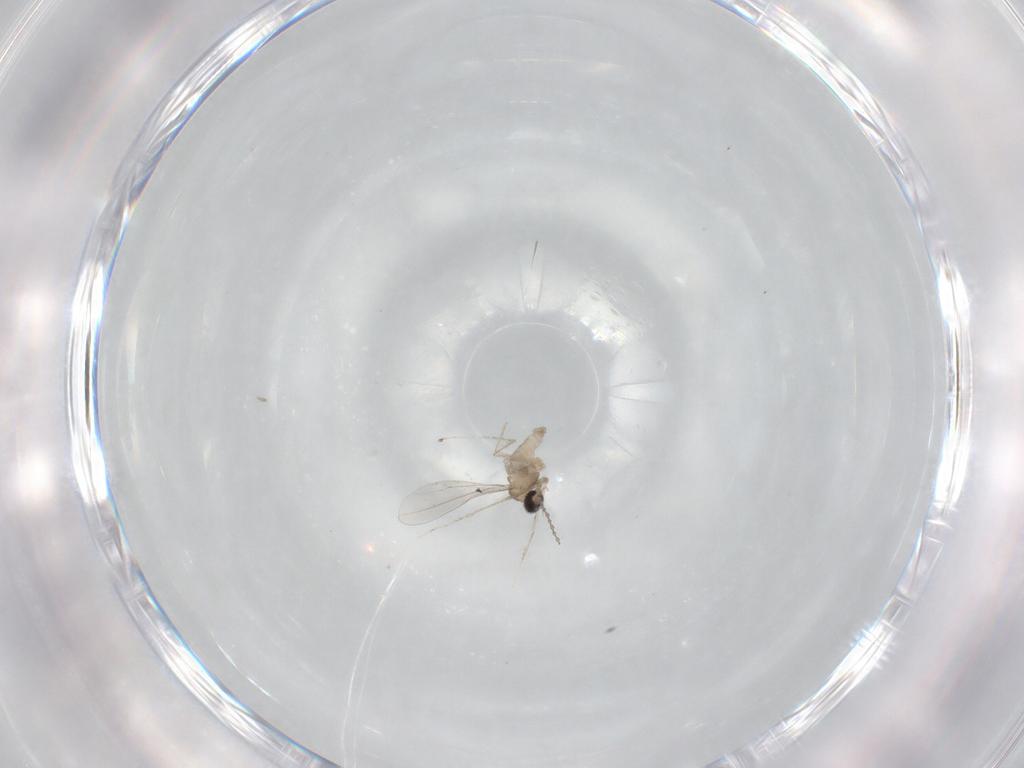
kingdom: Animalia
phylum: Arthropoda
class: Insecta
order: Diptera
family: Cecidomyiidae
